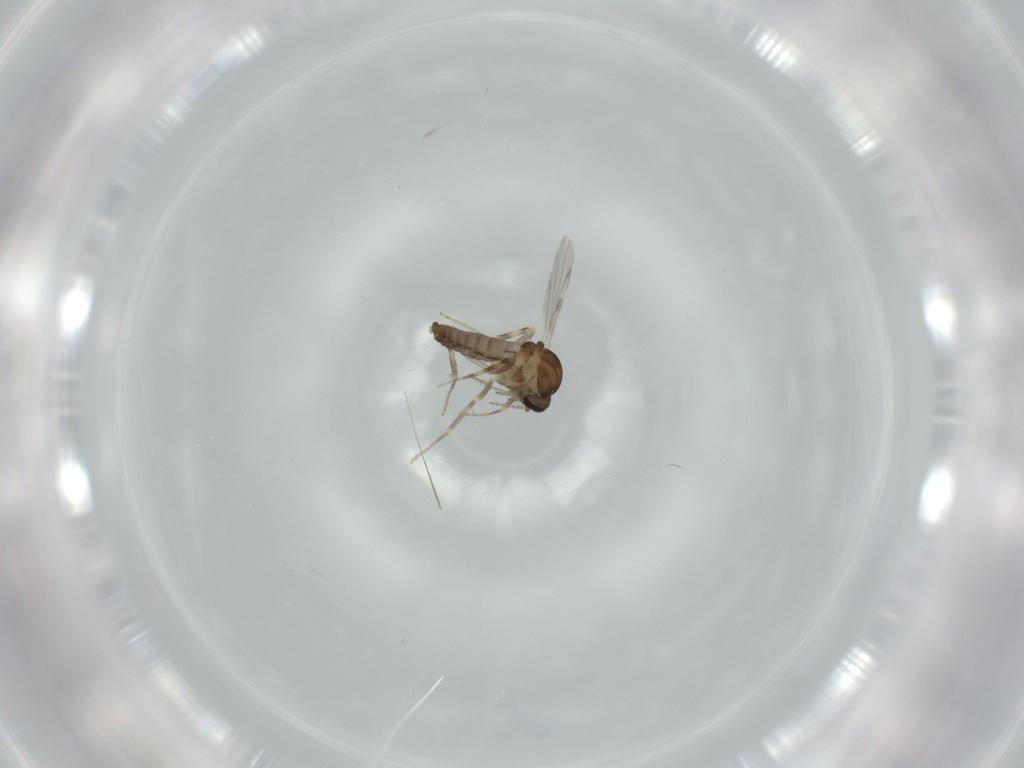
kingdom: Animalia
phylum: Arthropoda
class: Insecta
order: Diptera
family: Ceratopogonidae
